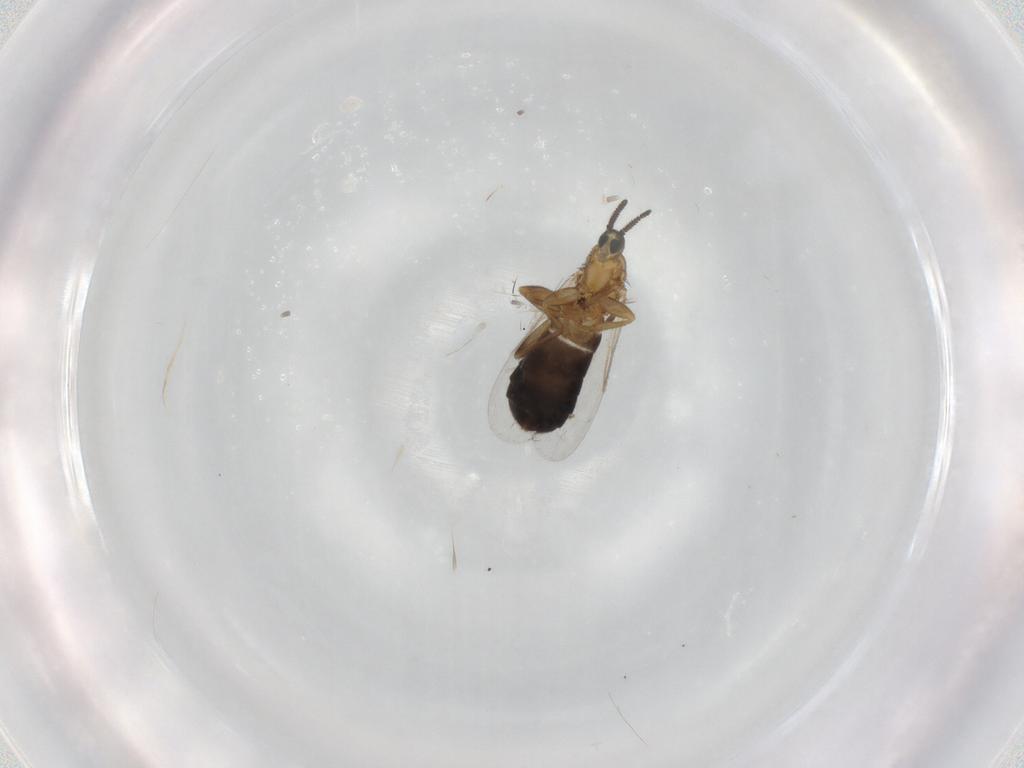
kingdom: Animalia
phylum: Arthropoda
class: Insecta
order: Diptera
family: Scatopsidae
